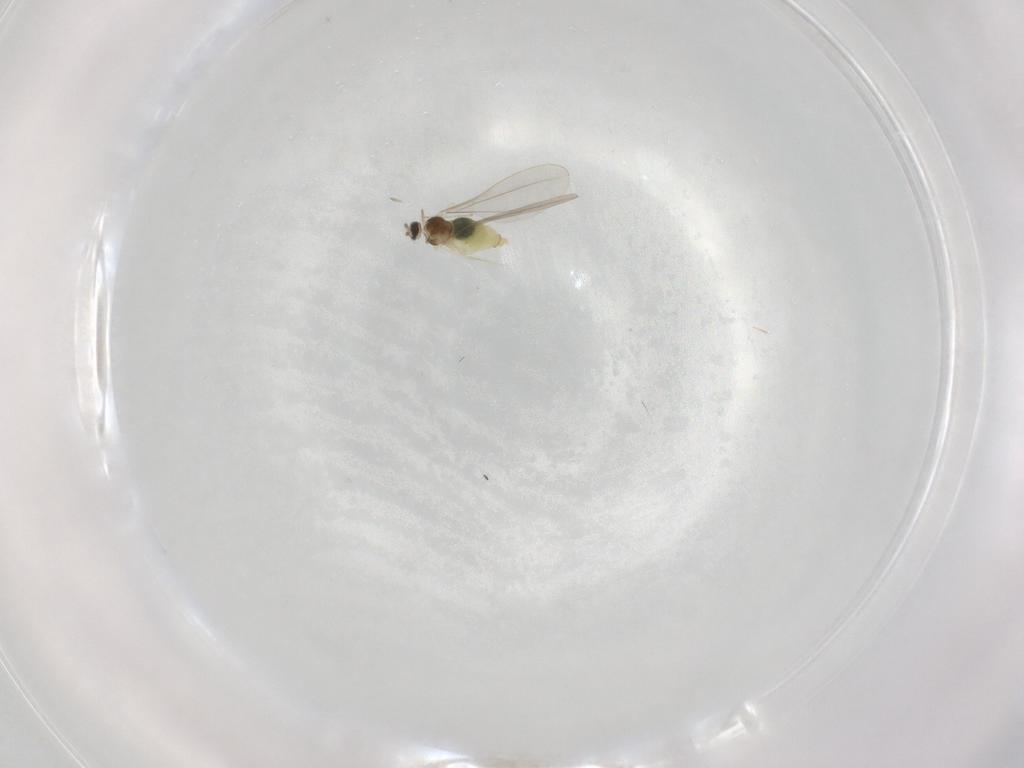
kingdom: Animalia
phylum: Arthropoda
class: Insecta
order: Diptera
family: Cecidomyiidae
